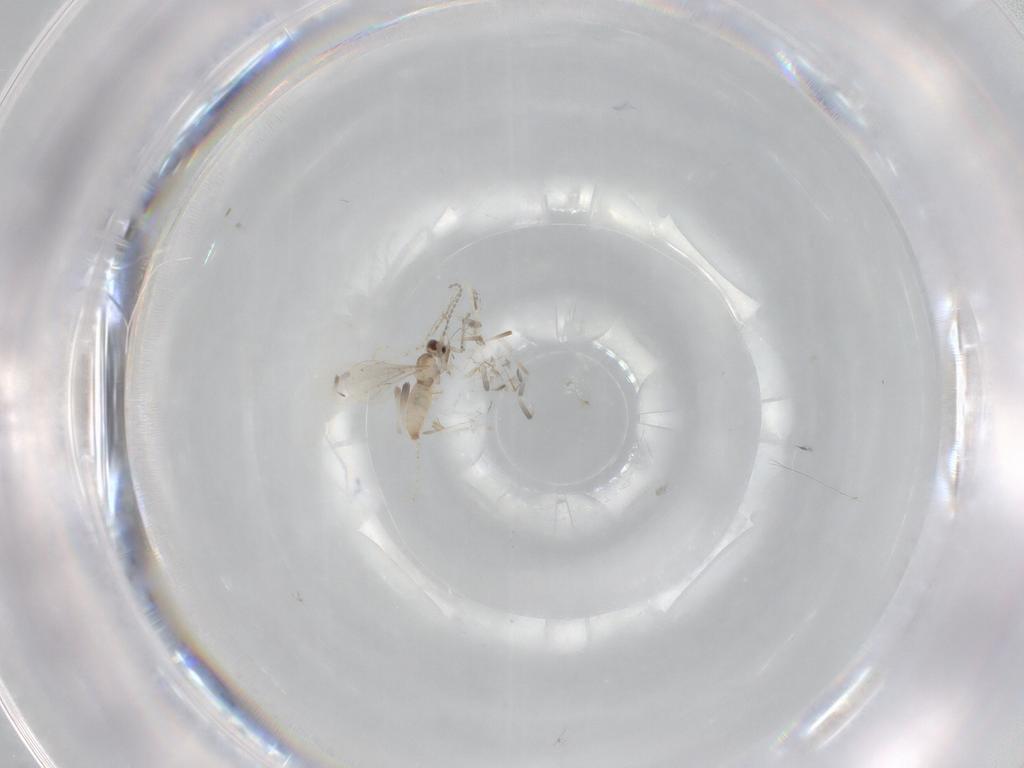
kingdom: Animalia
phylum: Arthropoda
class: Insecta
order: Diptera
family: Cecidomyiidae
